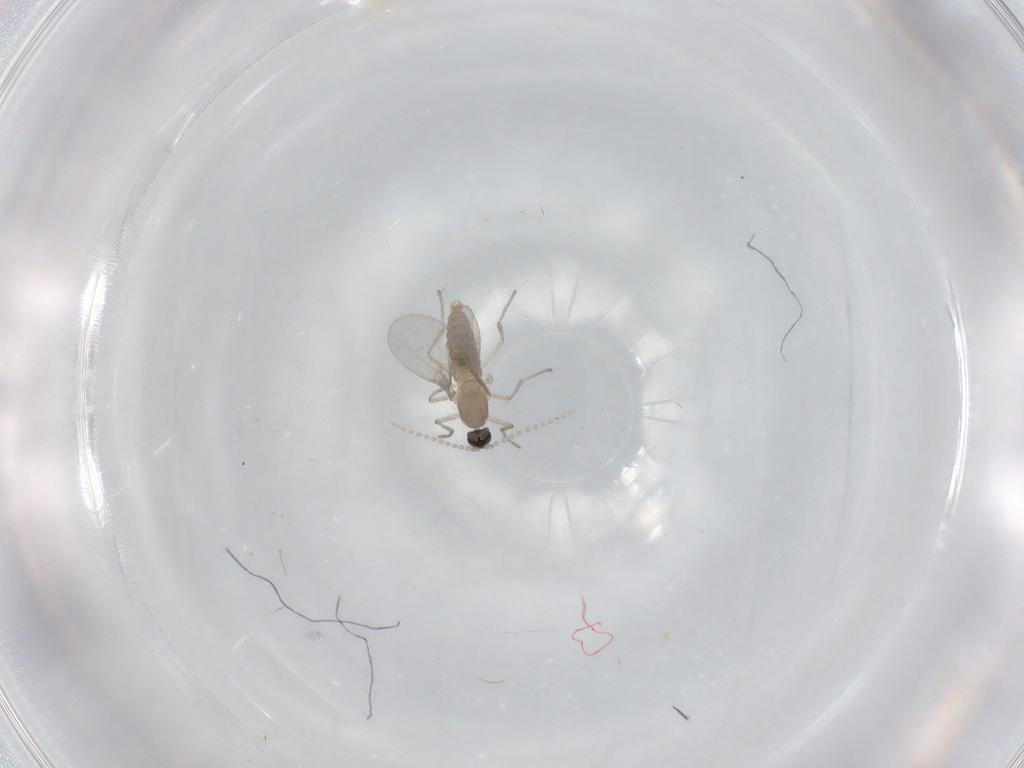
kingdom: Animalia
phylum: Arthropoda
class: Insecta
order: Diptera
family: Cecidomyiidae
